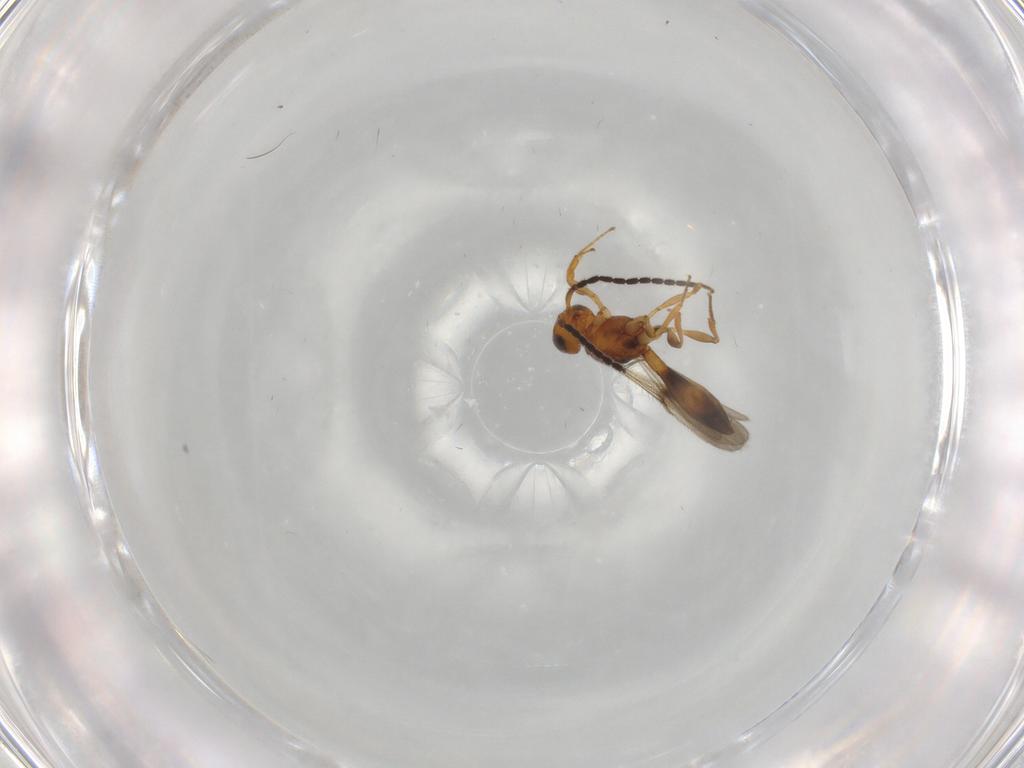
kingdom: Animalia
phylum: Arthropoda
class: Insecta
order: Hymenoptera
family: Scelionidae
